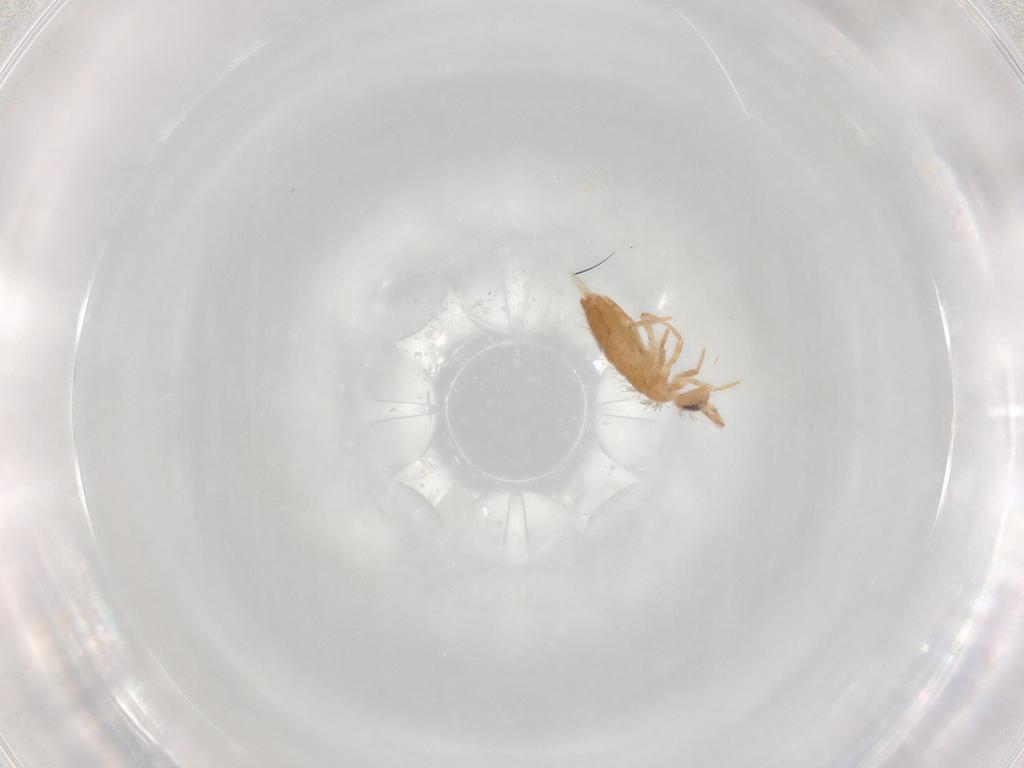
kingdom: Animalia
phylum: Arthropoda
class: Collembola
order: Entomobryomorpha
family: Entomobryidae
